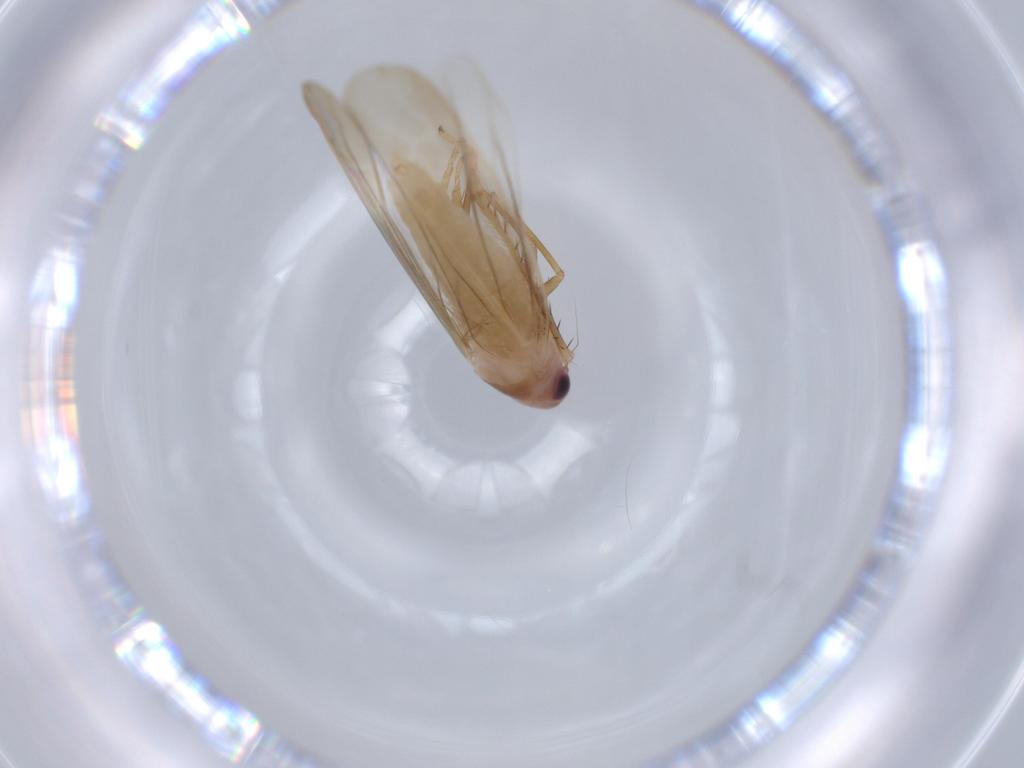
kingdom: Animalia
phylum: Arthropoda
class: Insecta
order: Hemiptera
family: Cicadellidae
